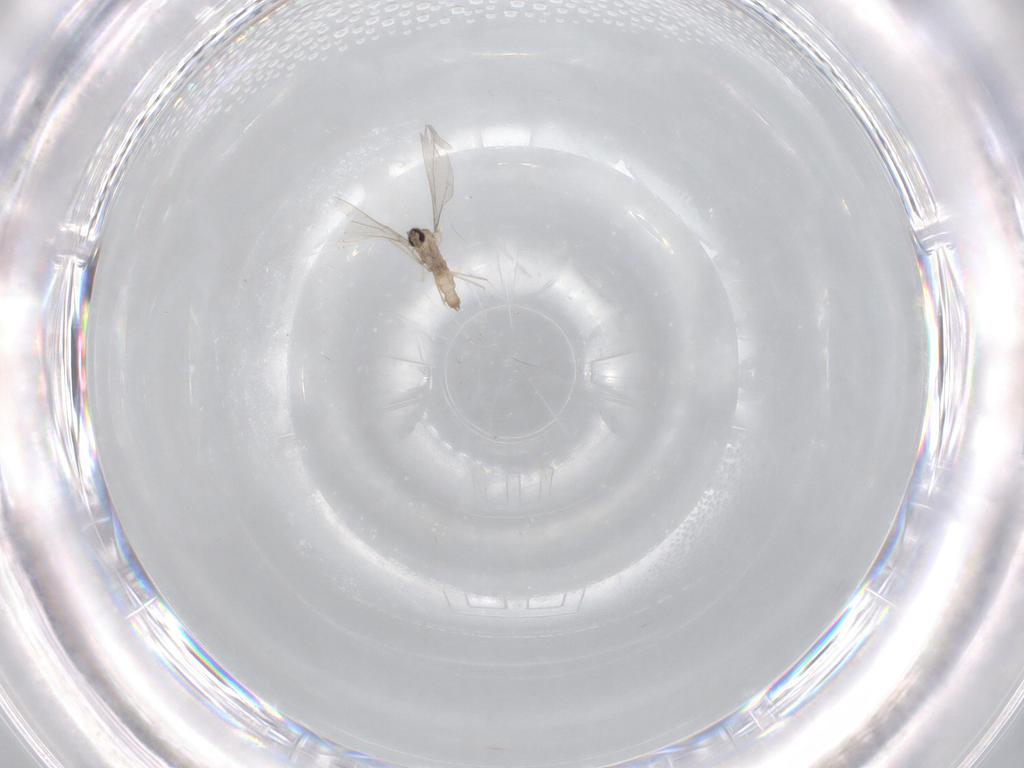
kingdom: Animalia
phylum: Arthropoda
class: Insecta
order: Diptera
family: Cecidomyiidae
